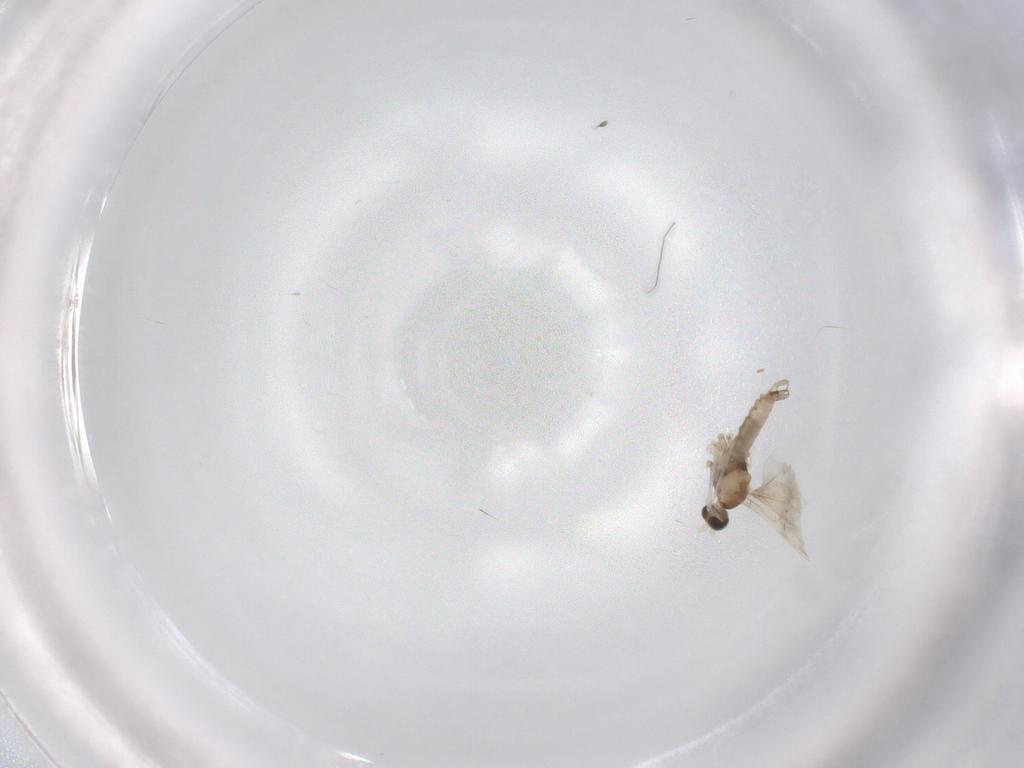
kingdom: Animalia
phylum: Arthropoda
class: Insecta
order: Diptera
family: Cecidomyiidae
